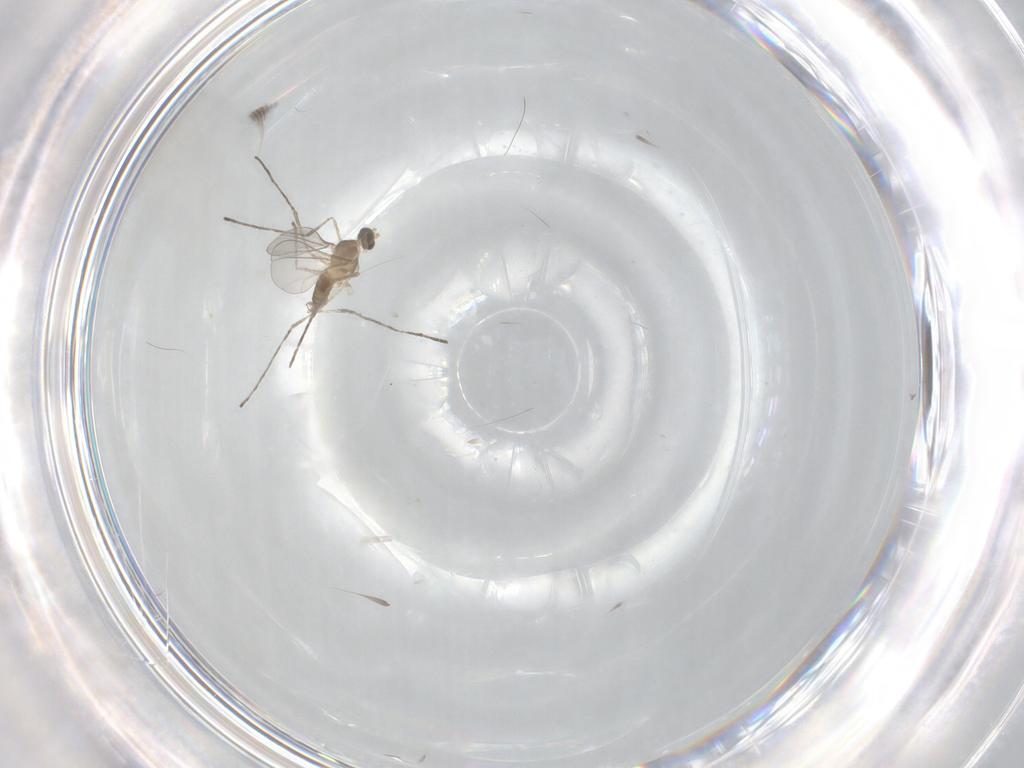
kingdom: Animalia
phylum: Arthropoda
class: Insecta
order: Diptera
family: Cecidomyiidae
